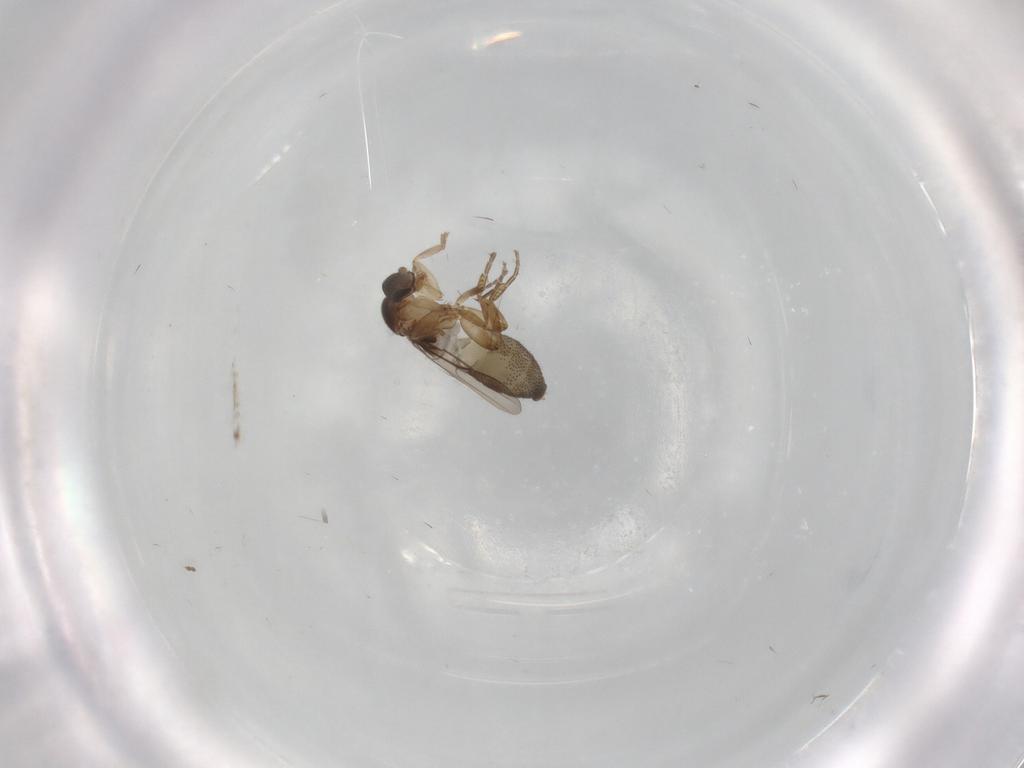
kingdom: Animalia
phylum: Arthropoda
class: Insecta
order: Diptera
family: Phoridae
